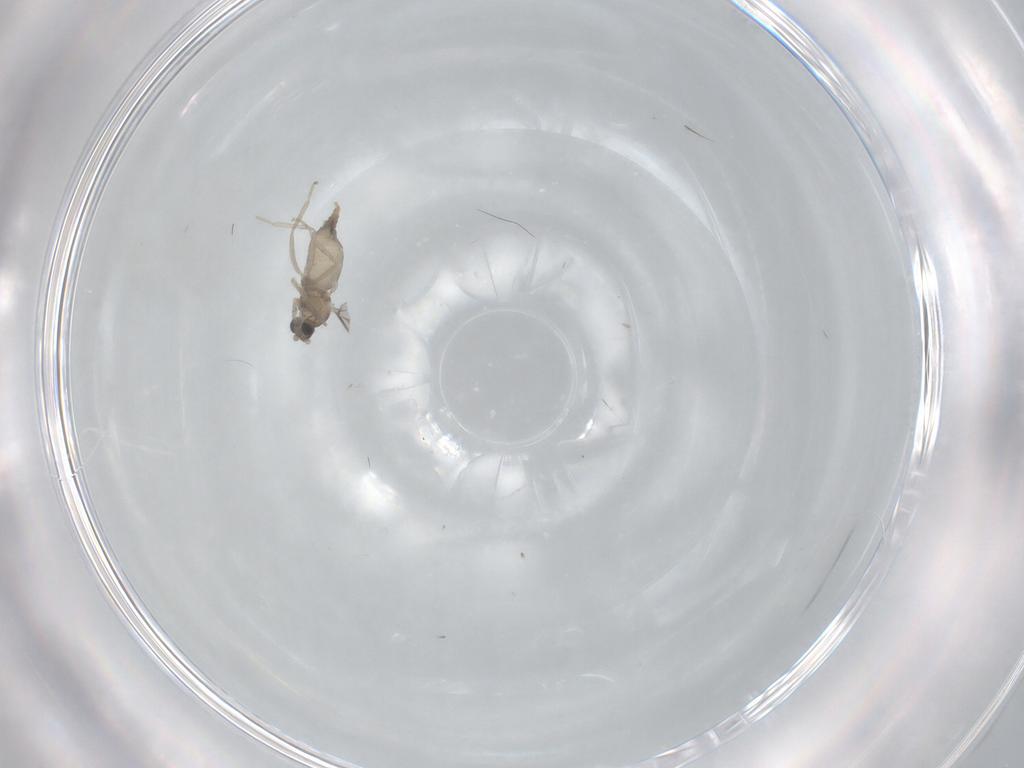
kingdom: Animalia
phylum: Arthropoda
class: Insecta
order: Diptera
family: Cecidomyiidae
